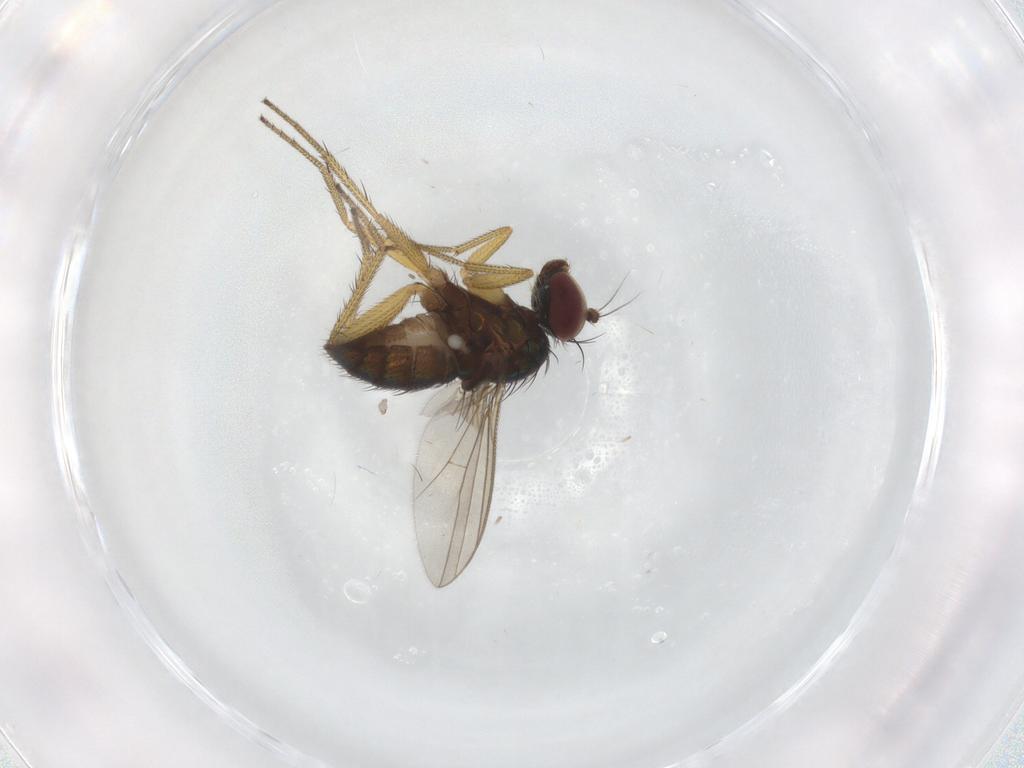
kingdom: Animalia
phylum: Arthropoda
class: Insecta
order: Diptera
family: Dolichopodidae
